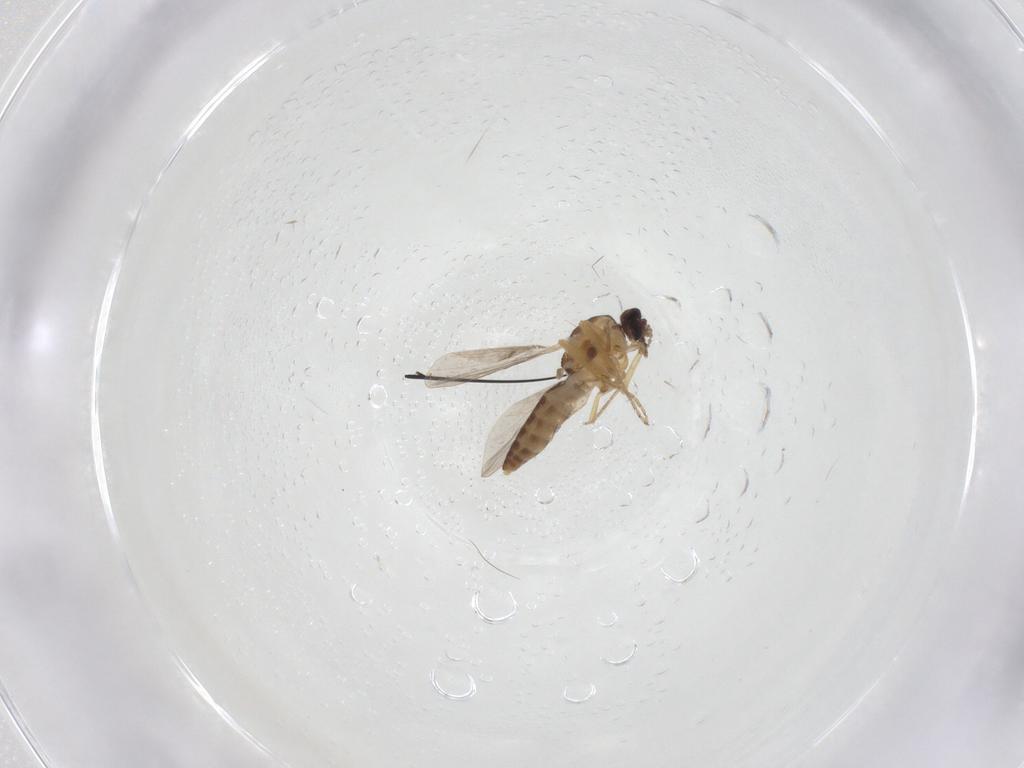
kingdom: Animalia
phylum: Arthropoda
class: Insecta
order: Diptera
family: Ceratopogonidae
